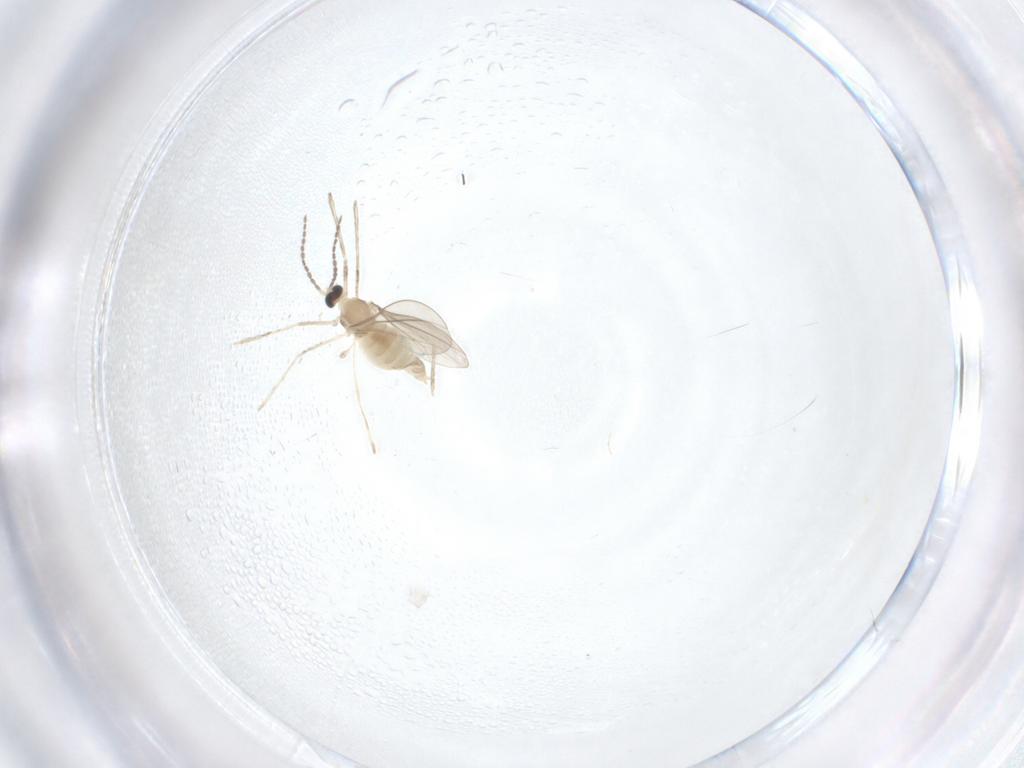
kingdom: Animalia
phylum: Arthropoda
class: Insecta
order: Diptera
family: Cecidomyiidae
